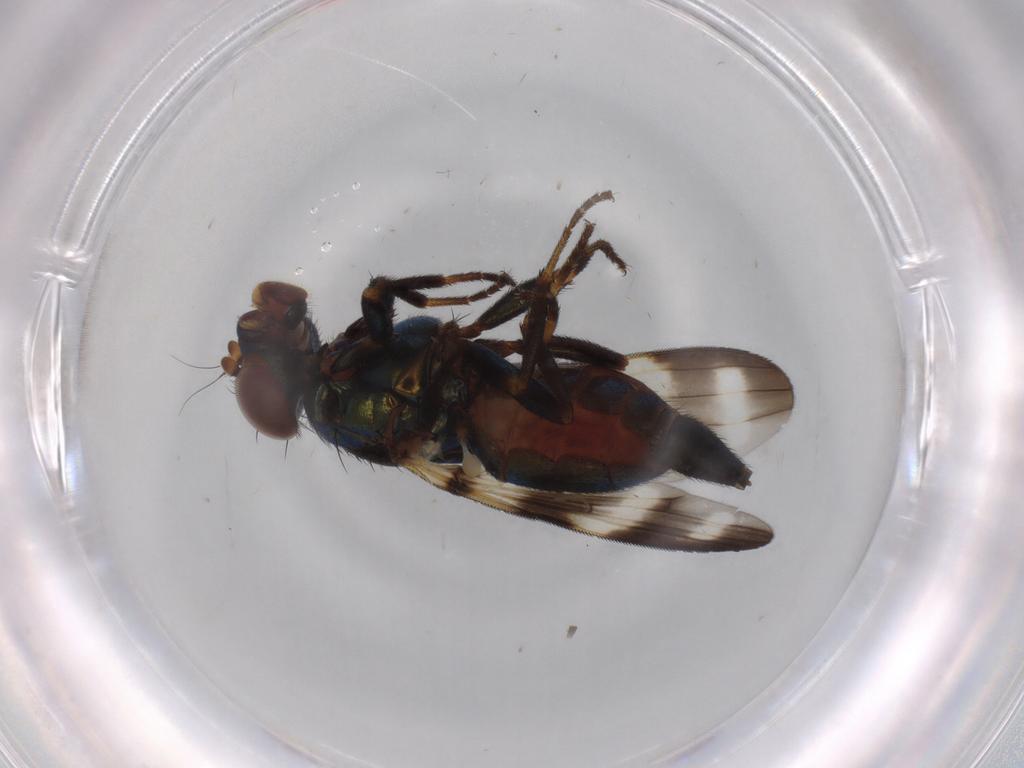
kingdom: Animalia
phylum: Arthropoda
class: Insecta
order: Diptera
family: Ulidiidae
